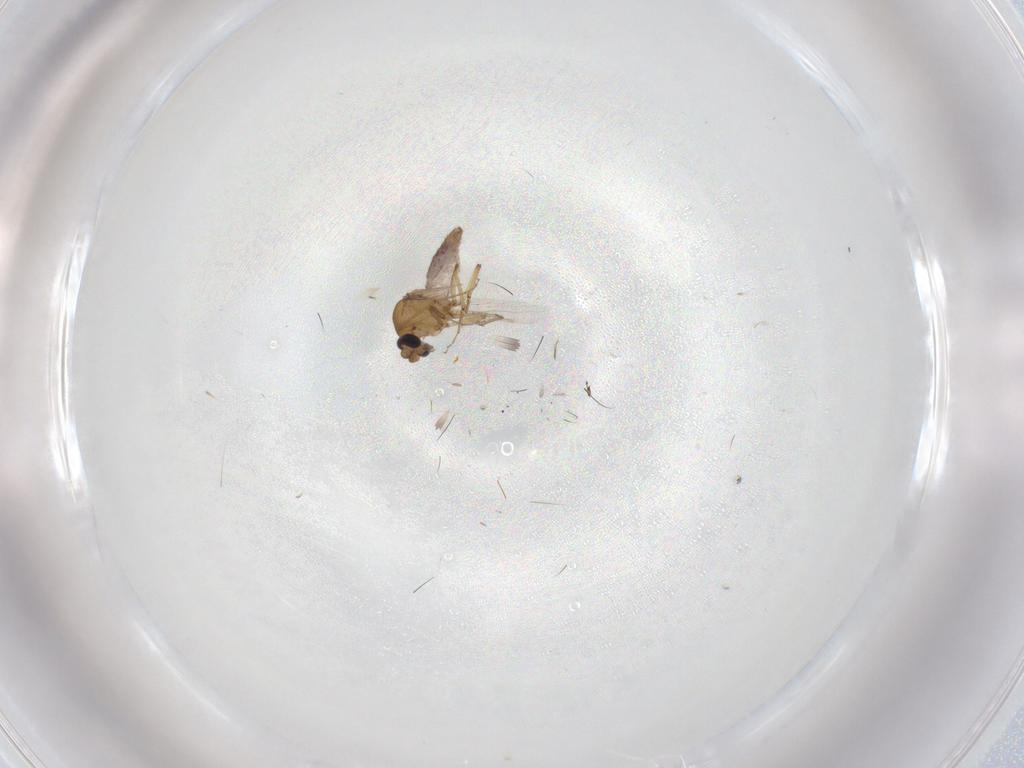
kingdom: Animalia
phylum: Arthropoda
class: Insecta
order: Diptera
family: Ceratopogonidae
